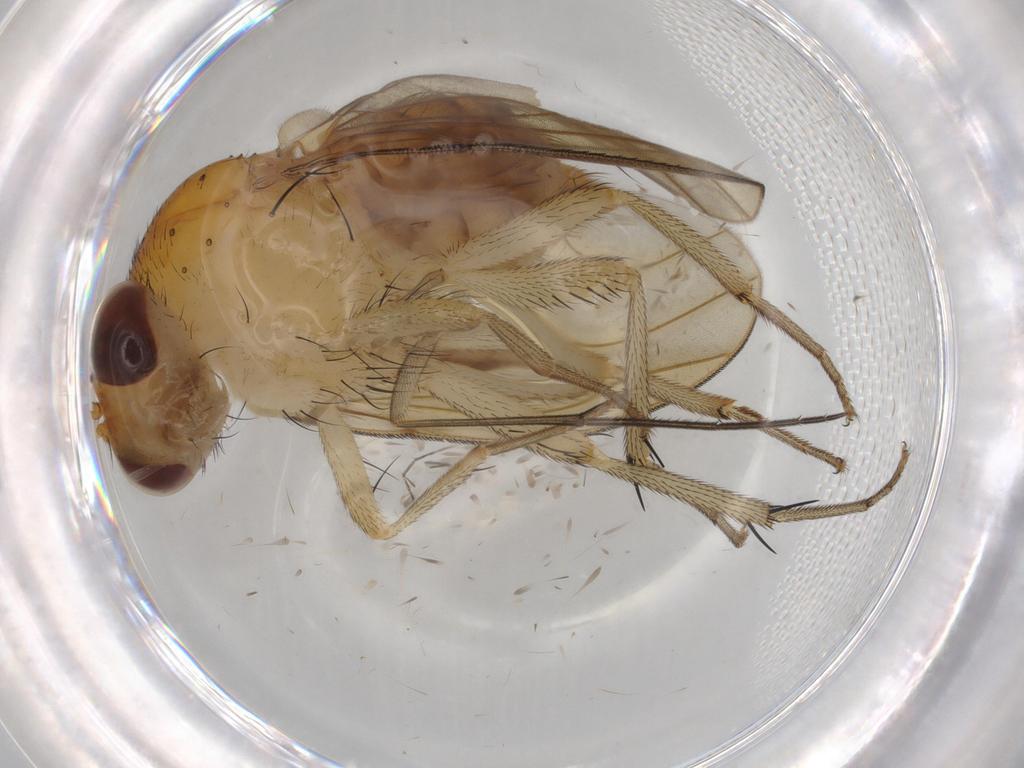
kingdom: Animalia
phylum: Arthropoda
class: Insecta
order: Diptera
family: Mycetophilidae
